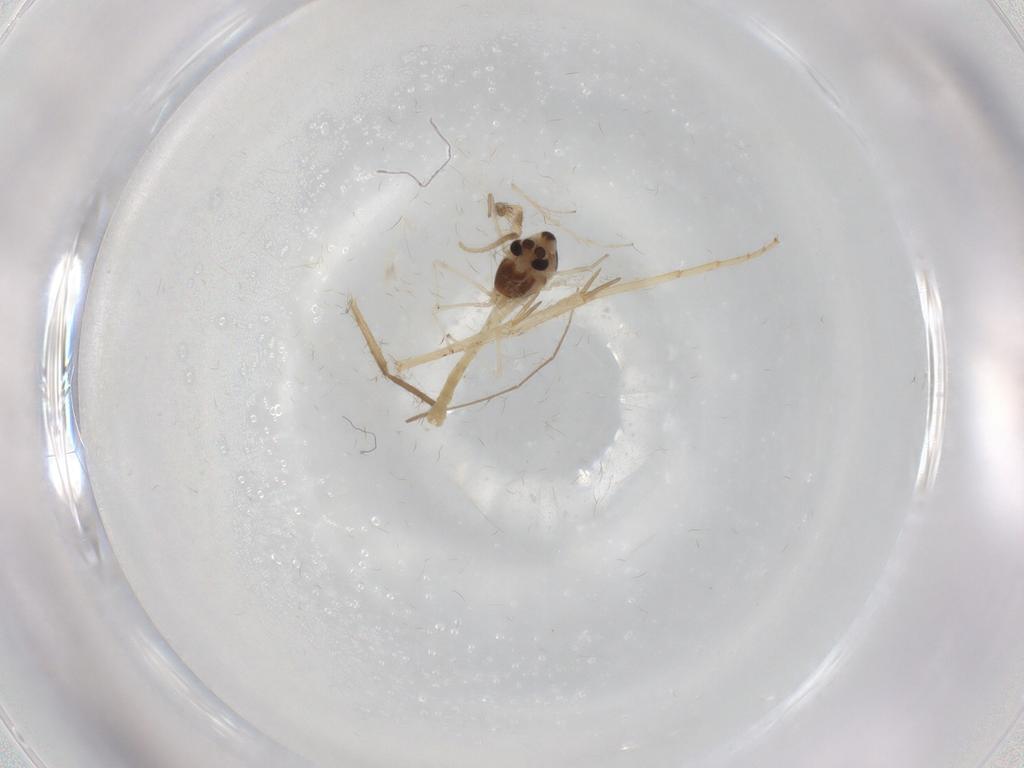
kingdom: Animalia
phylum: Arthropoda
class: Insecta
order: Diptera
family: Chironomidae
